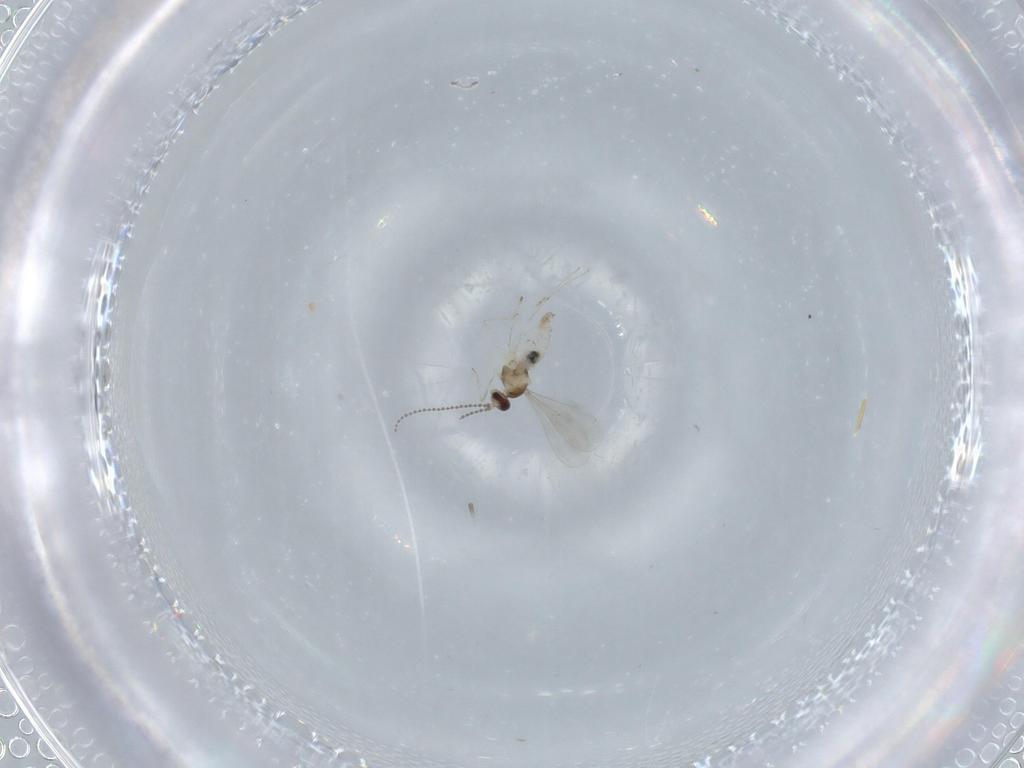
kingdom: Animalia
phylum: Arthropoda
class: Insecta
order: Diptera
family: Cecidomyiidae
